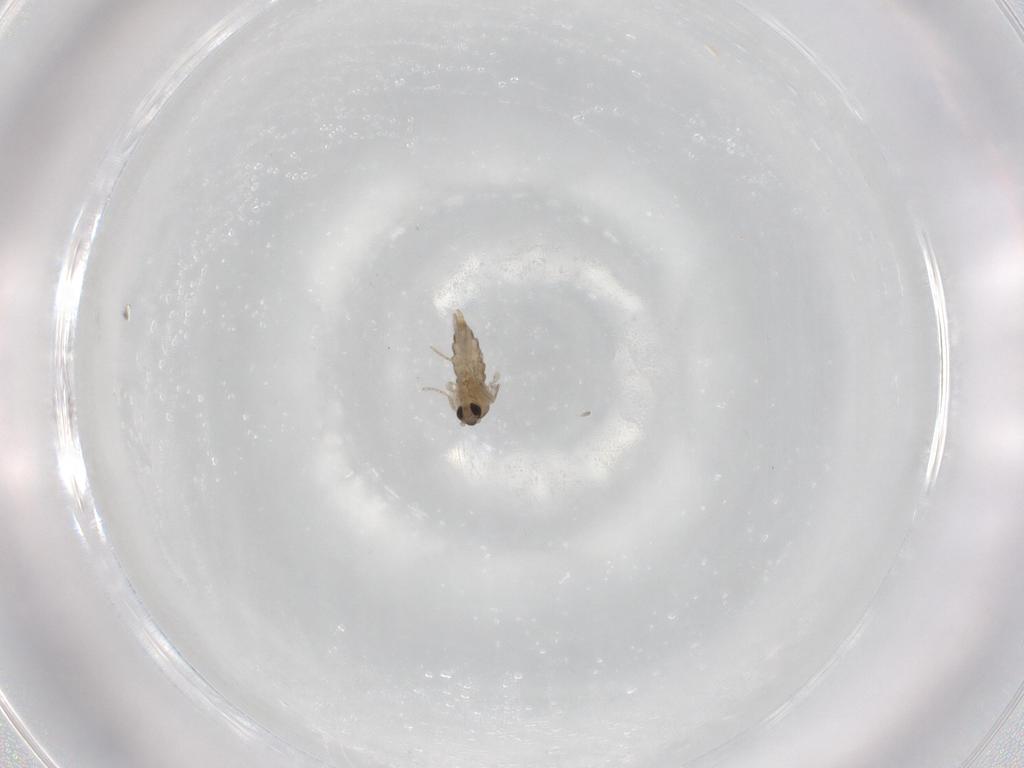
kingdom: Animalia
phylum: Arthropoda
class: Insecta
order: Diptera
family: Cecidomyiidae
